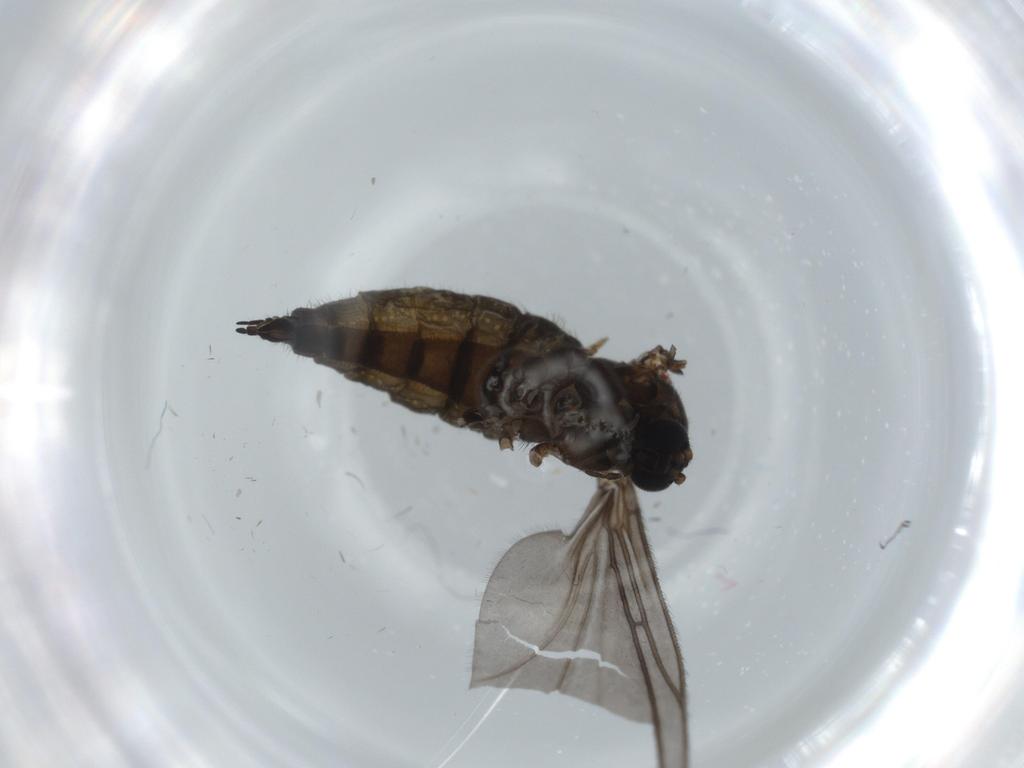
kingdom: Animalia
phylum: Arthropoda
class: Insecta
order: Diptera
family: Sciaridae
